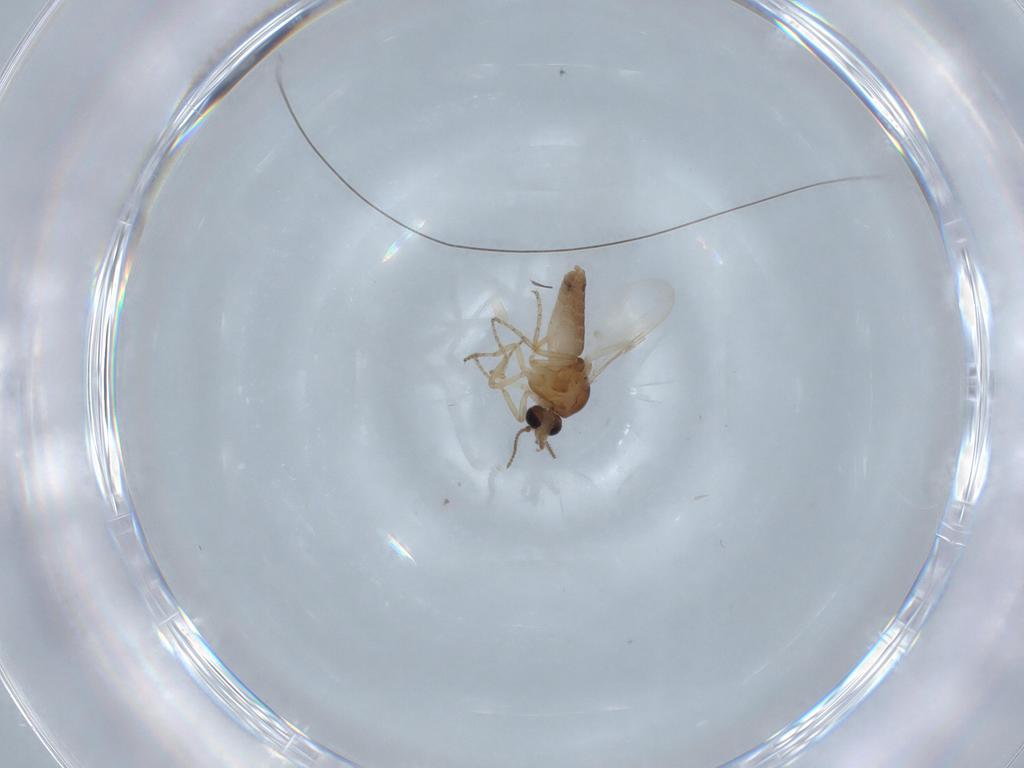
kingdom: Animalia
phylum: Arthropoda
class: Insecta
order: Diptera
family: Ceratopogonidae
